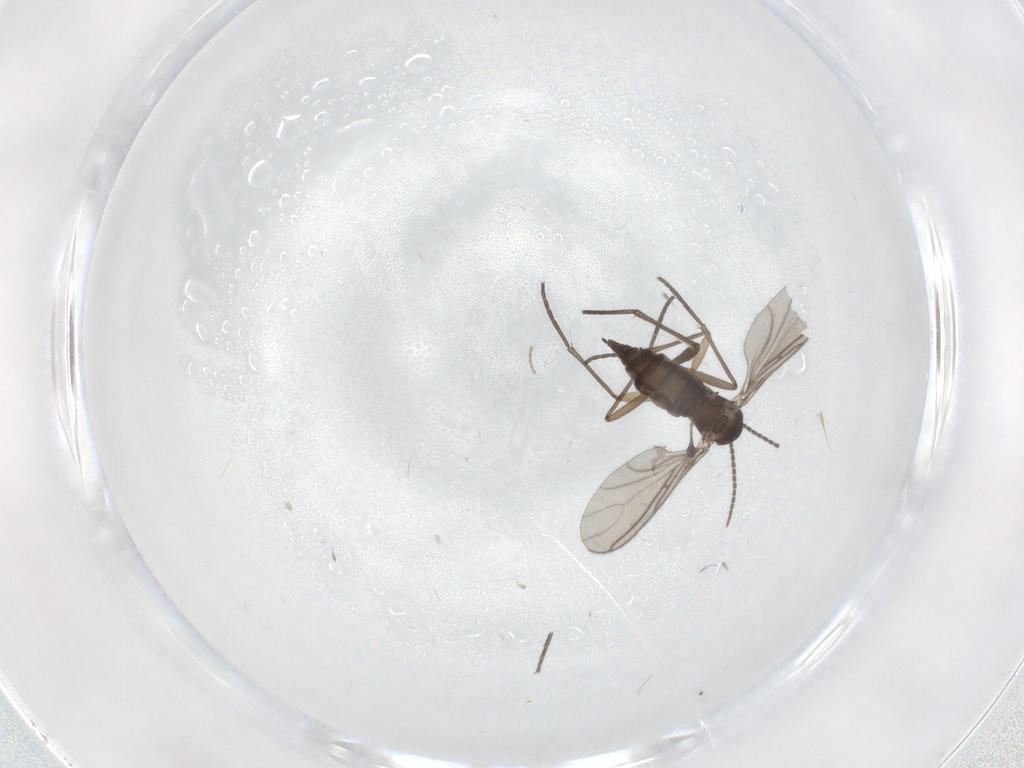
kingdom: Animalia
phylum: Arthropoda
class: Insecta
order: Diptera
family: Sciaridae
